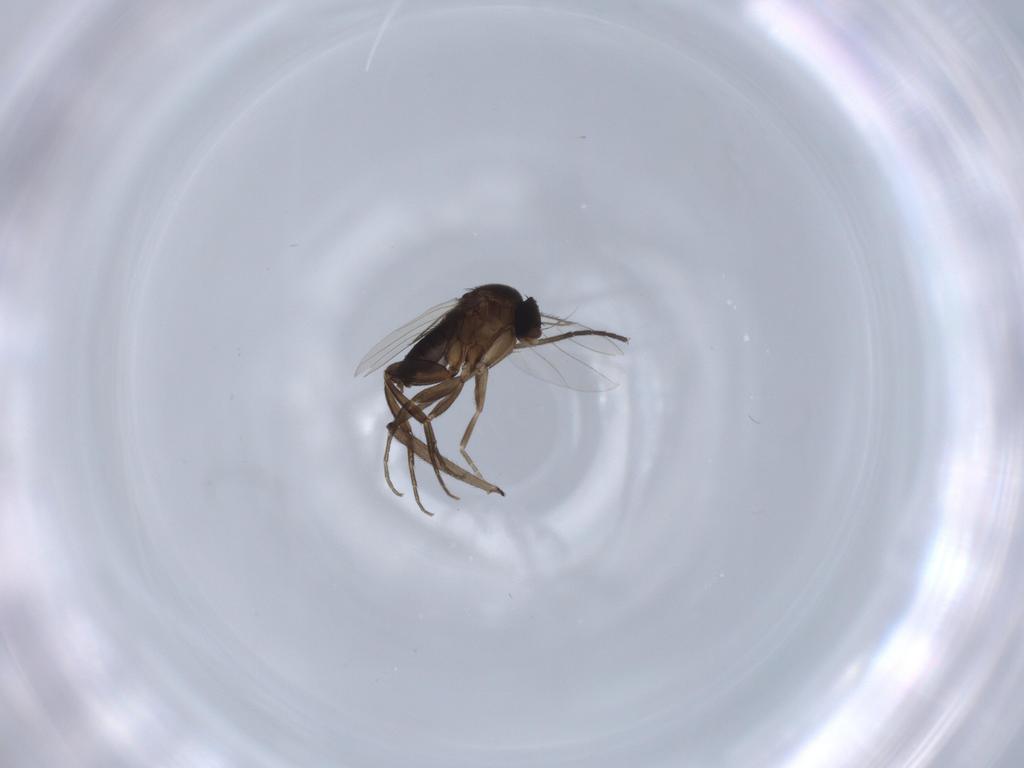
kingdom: Animalia
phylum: Arthropoda
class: Insecta
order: Diptera
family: Phoridae
